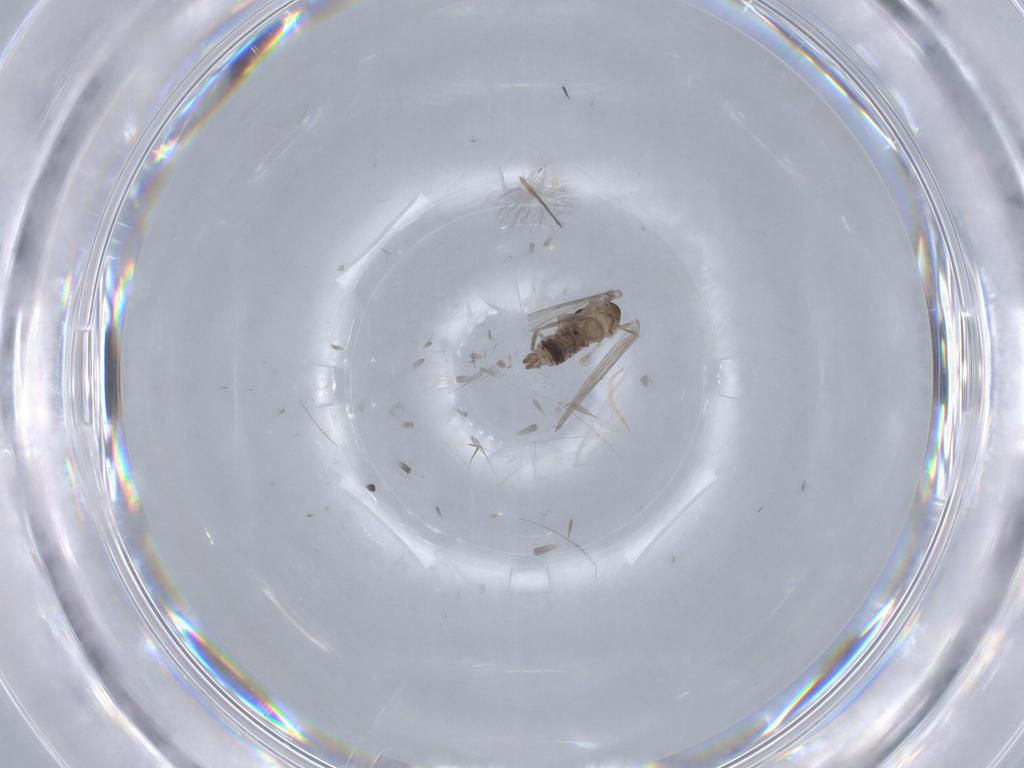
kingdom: Animalia
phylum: Arthropoda
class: Insecta
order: Diptera
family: Psychodidae
